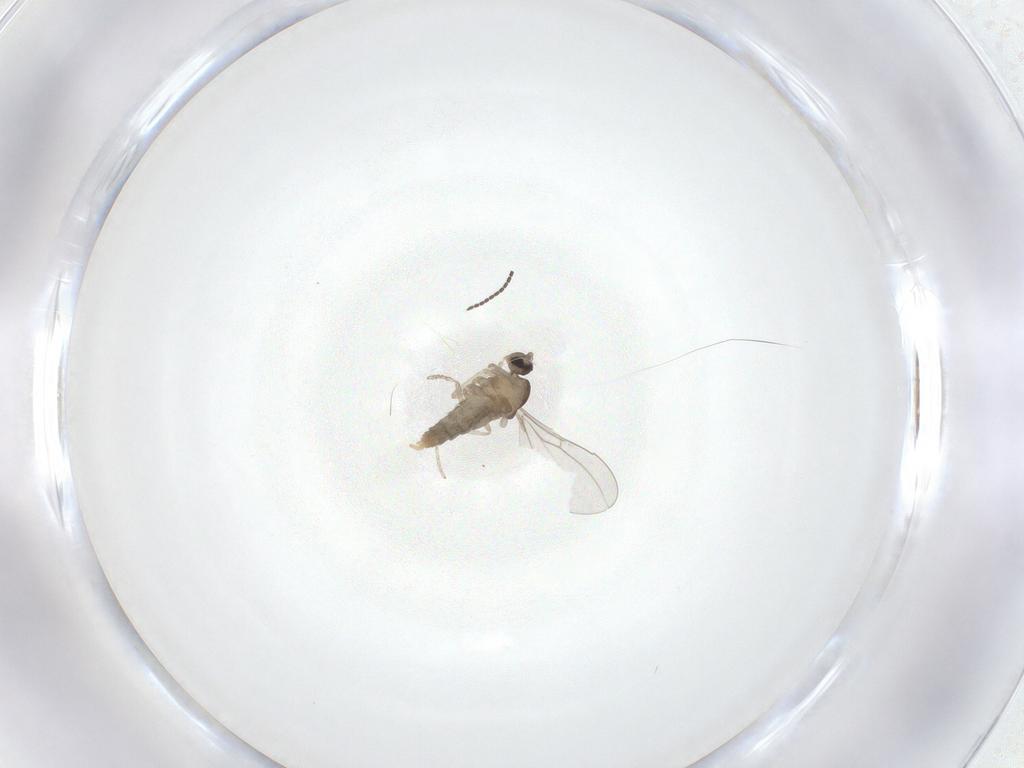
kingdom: Animalia
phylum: Arthropoda
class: Insecta
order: Diptera
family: Cecidomyiidae
